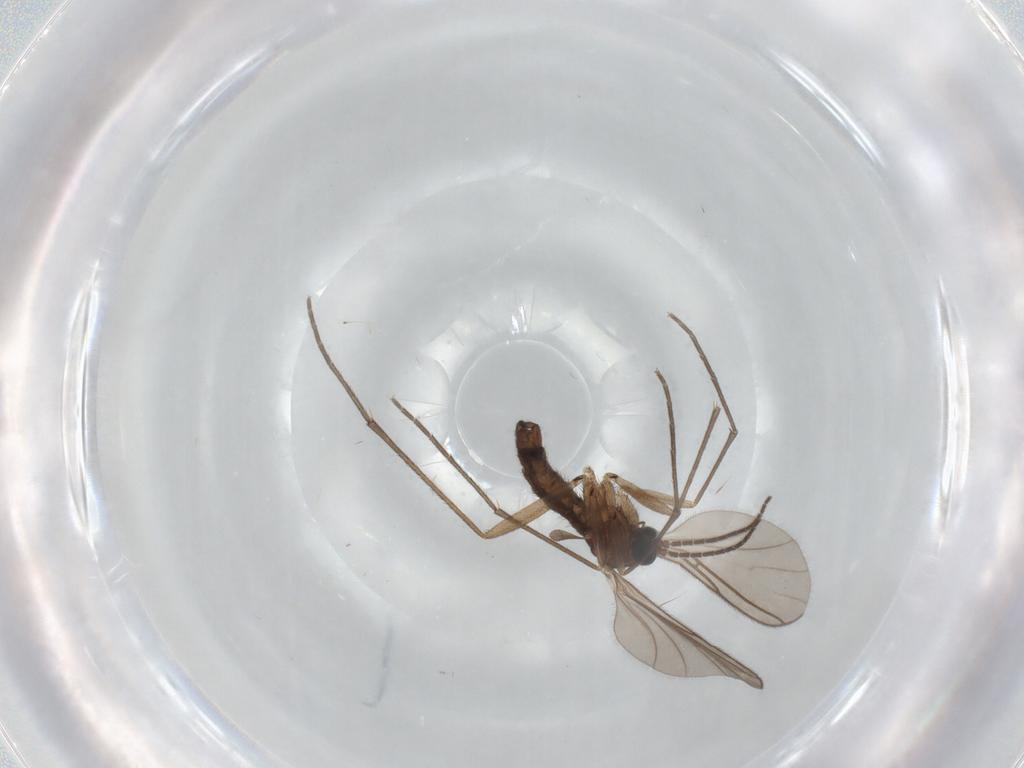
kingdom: Animalia
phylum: Arthropoda
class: Insecta
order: Diptera
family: Sciaridae
